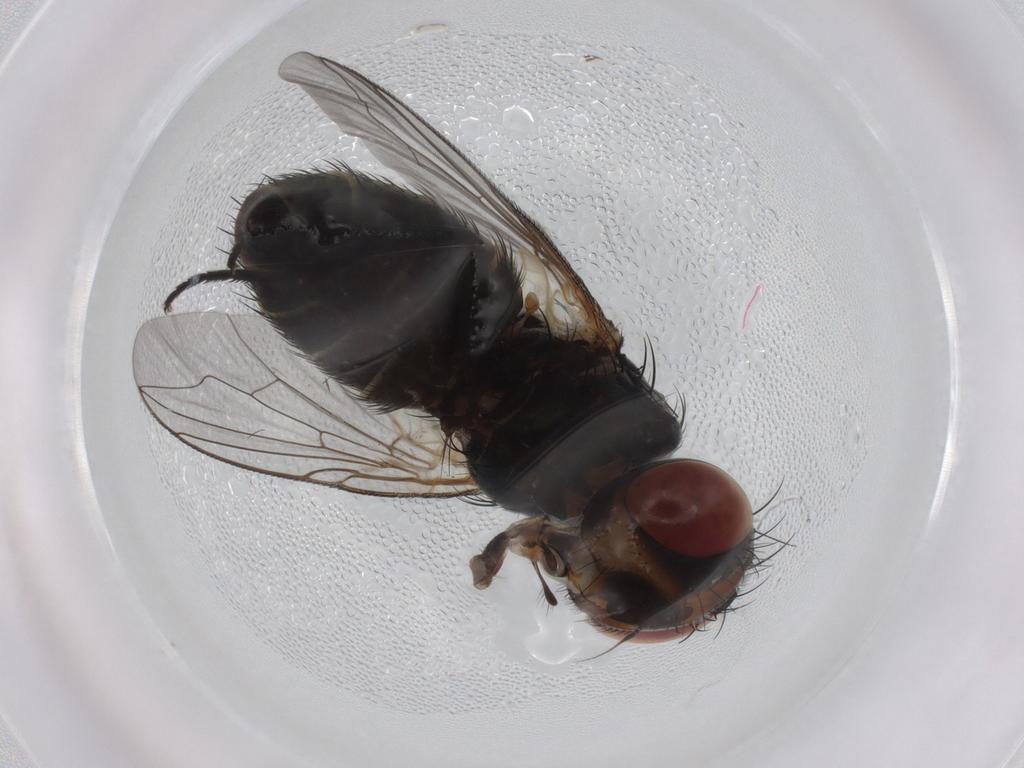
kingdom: Animalia
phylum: Arthropoda
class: Insecta
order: Diptera
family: Sarcophagidae
